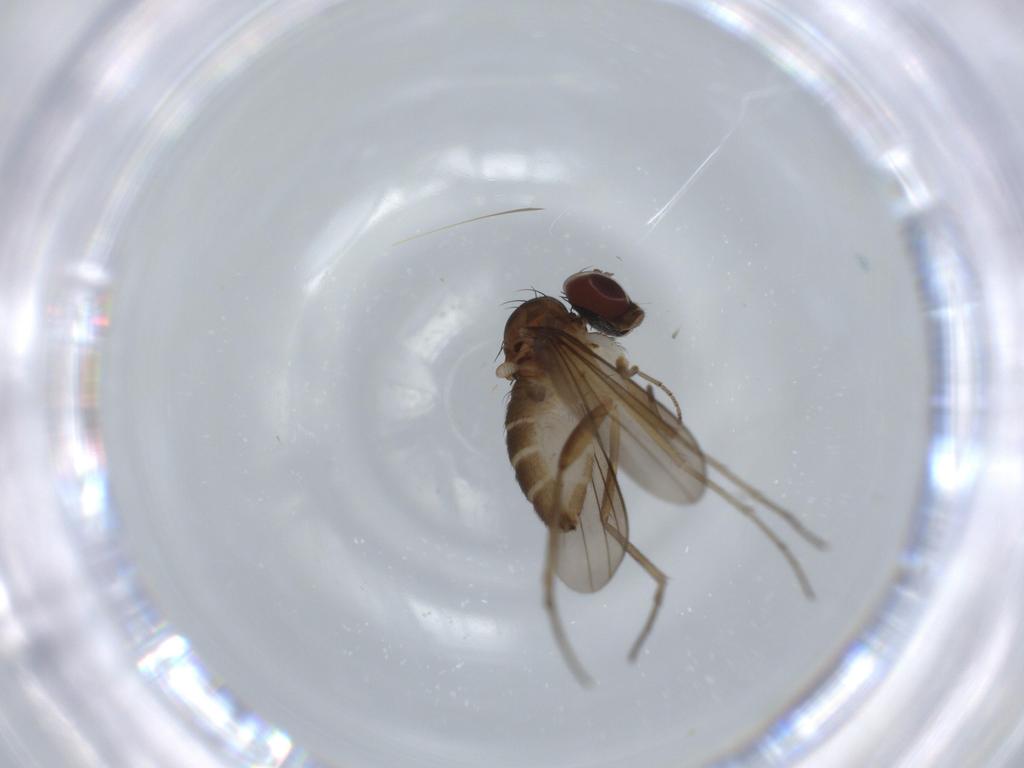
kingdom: Animalia
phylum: Arthropoda
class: Insecta
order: Diptera
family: Dolichopodidae
